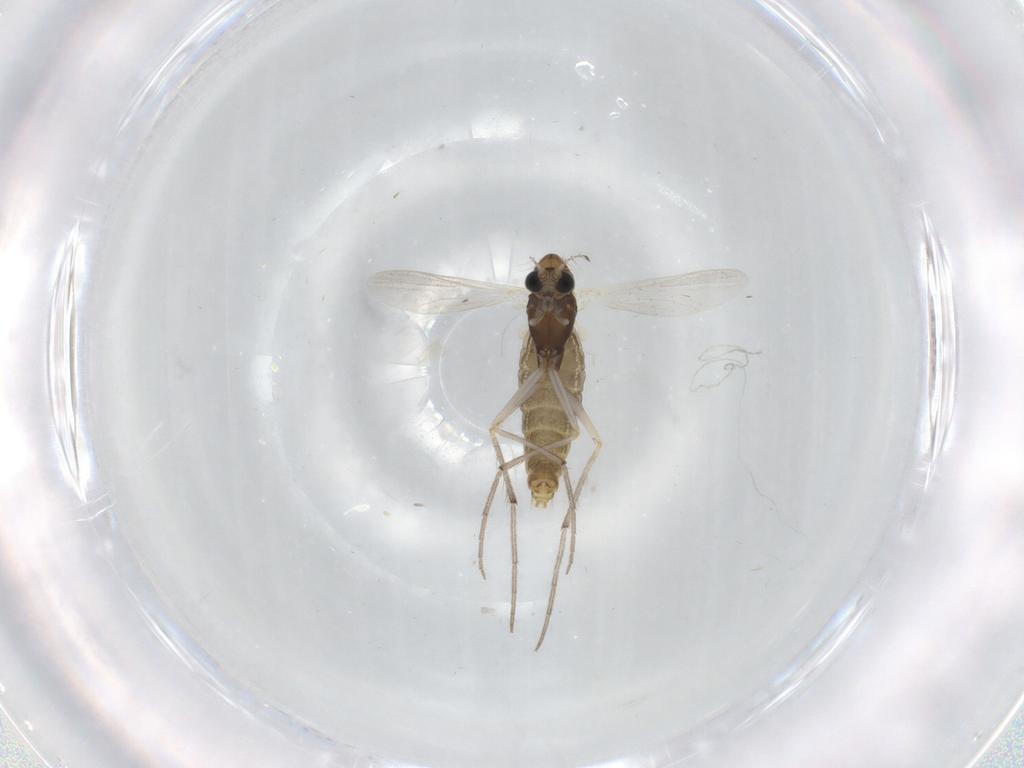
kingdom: Animalia
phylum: Arthropoda
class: Insecta
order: Diptera
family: Chironomidae
